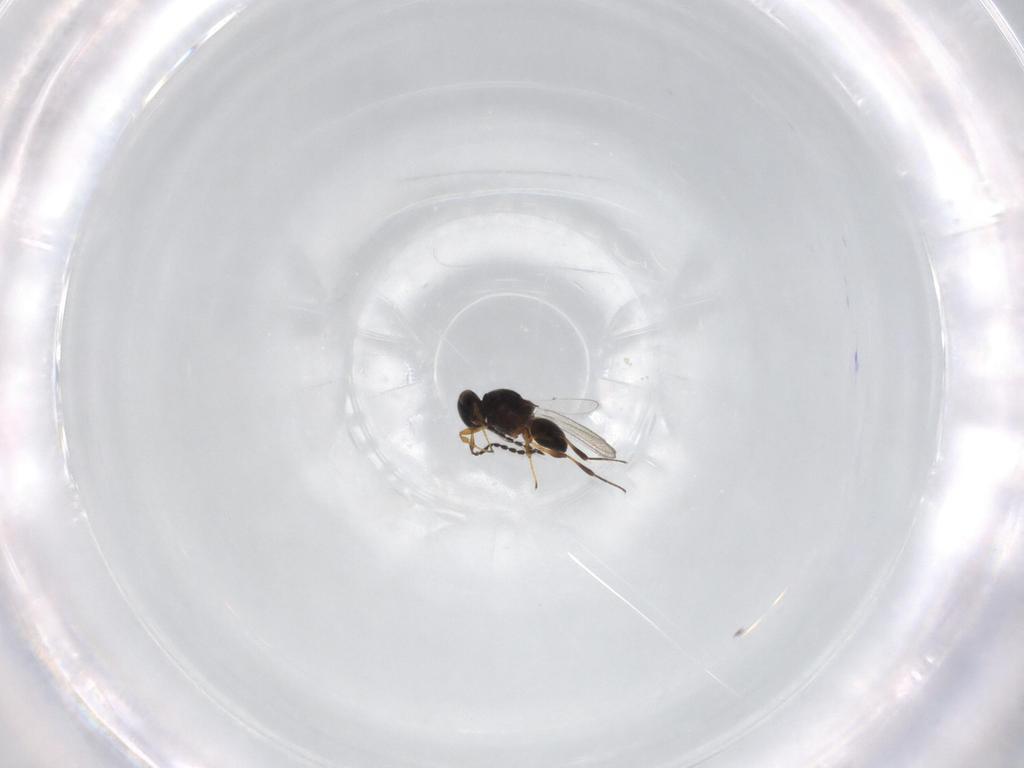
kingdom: Animalia
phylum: Arthropoda
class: Insecta
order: Hymenoptera
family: Platygastridae
